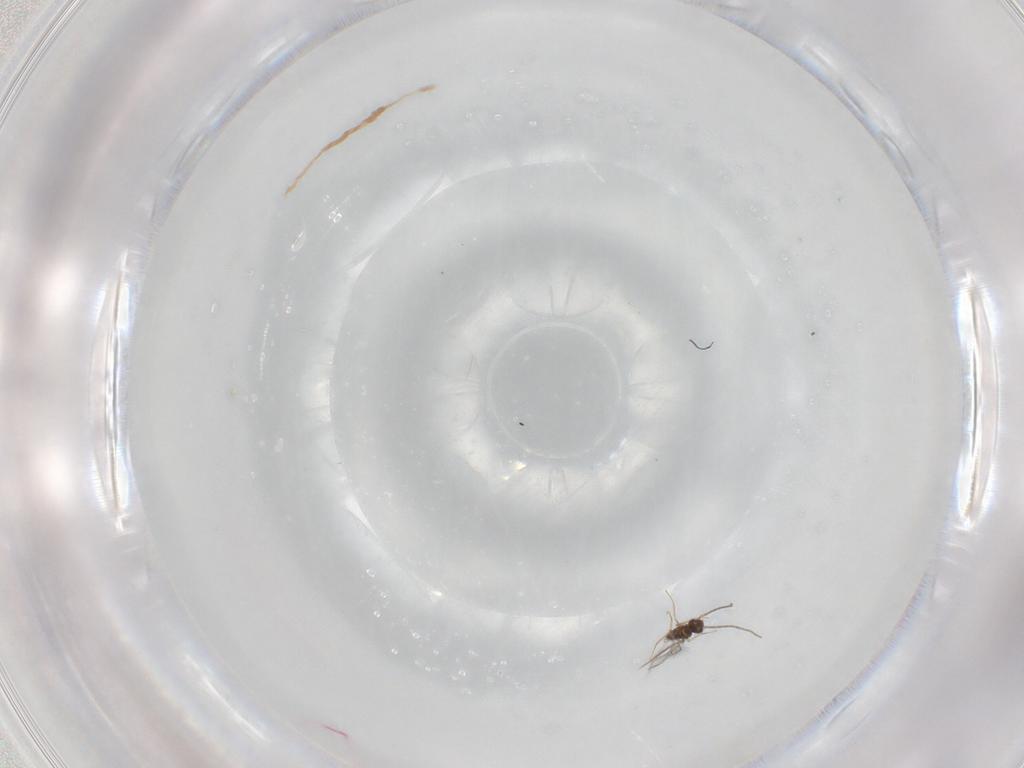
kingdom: Animalia
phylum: Arthropoda
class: Insecta
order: Hymenoptera
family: Mymaridae
